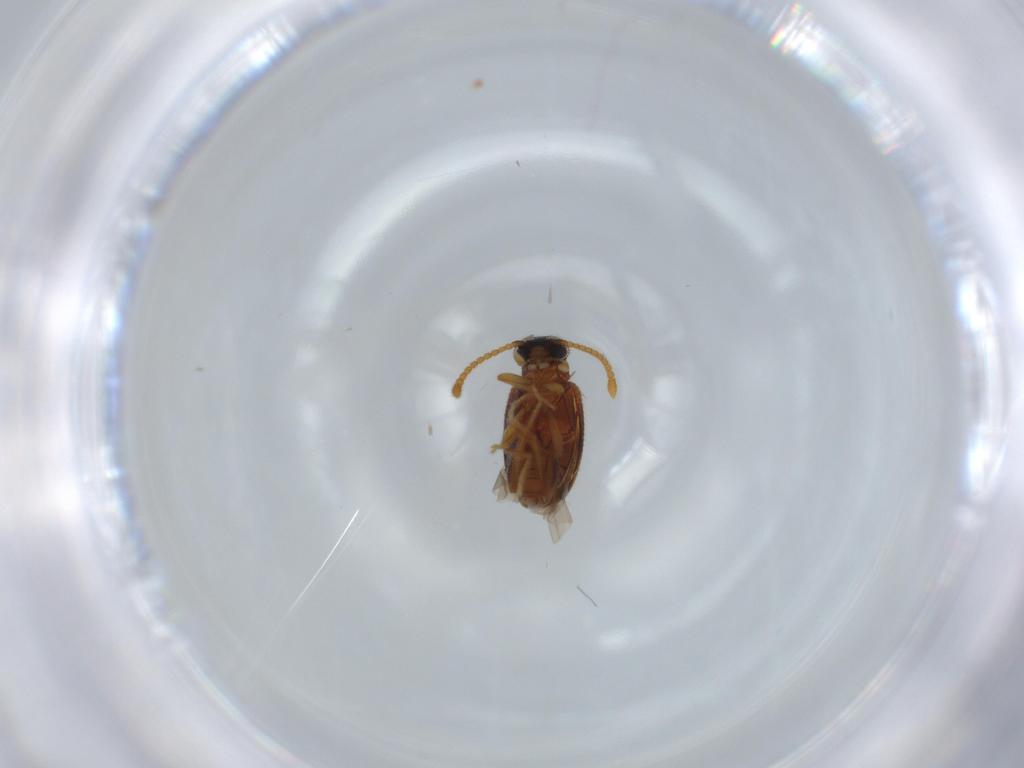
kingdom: Animalia
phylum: Arthropoda
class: Insecta
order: Coleoptera
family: Aderidae
